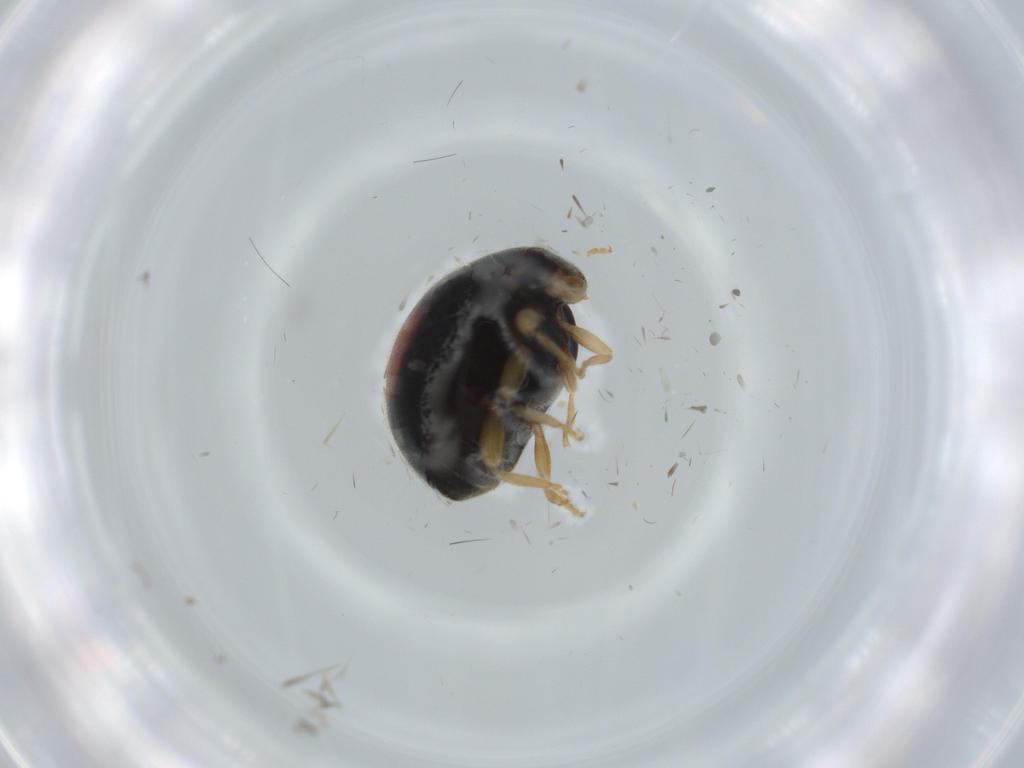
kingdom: Animalia
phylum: Arthropoda
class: Insecta
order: Coleoptera
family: Coccinellidae
